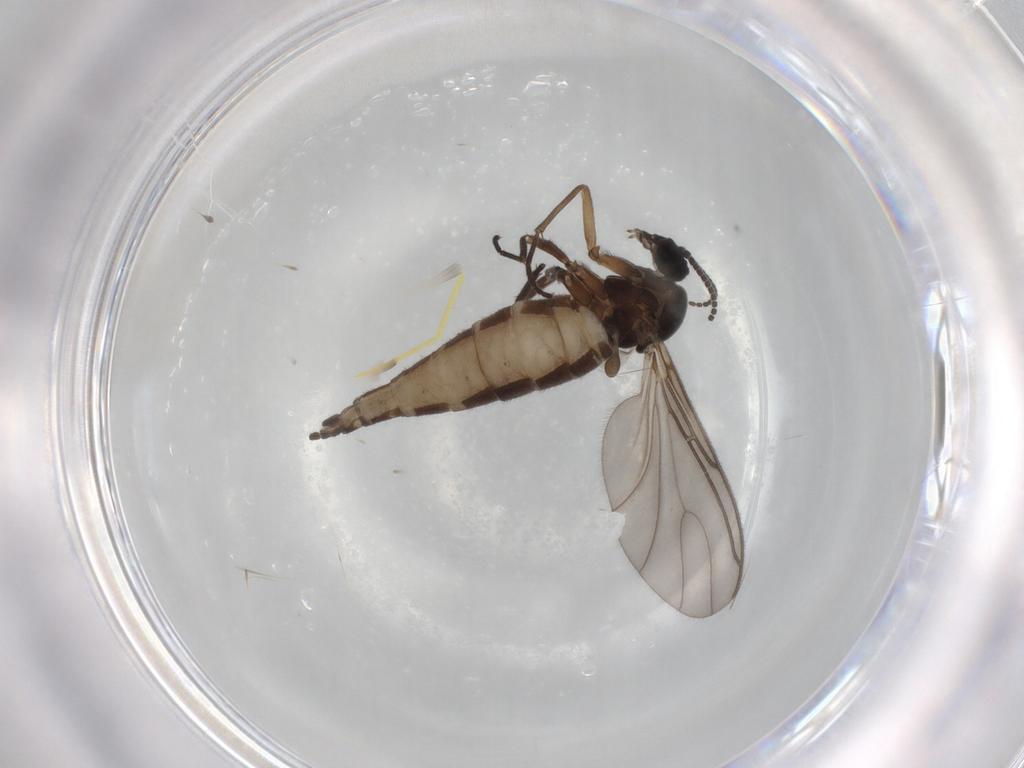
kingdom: Animalia
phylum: Arthropoda
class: Insecta
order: Diptera
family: Sciaridae
